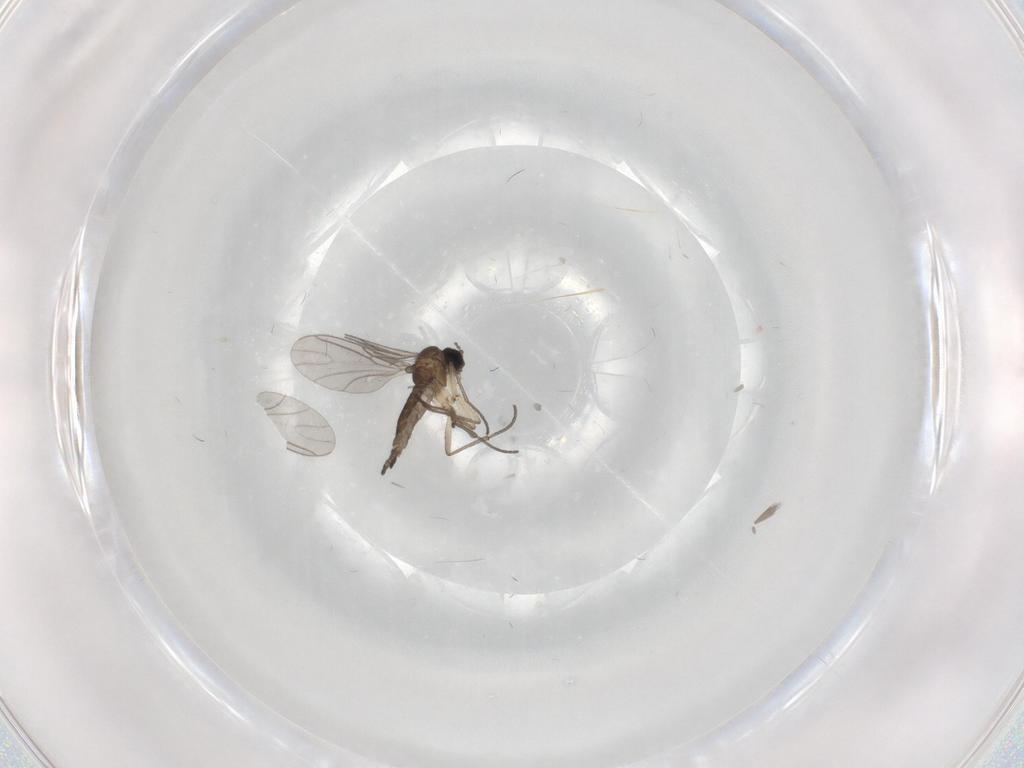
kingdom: Animalia
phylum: Arthropoda
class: Insecta
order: Diptera
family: Sciaridae
